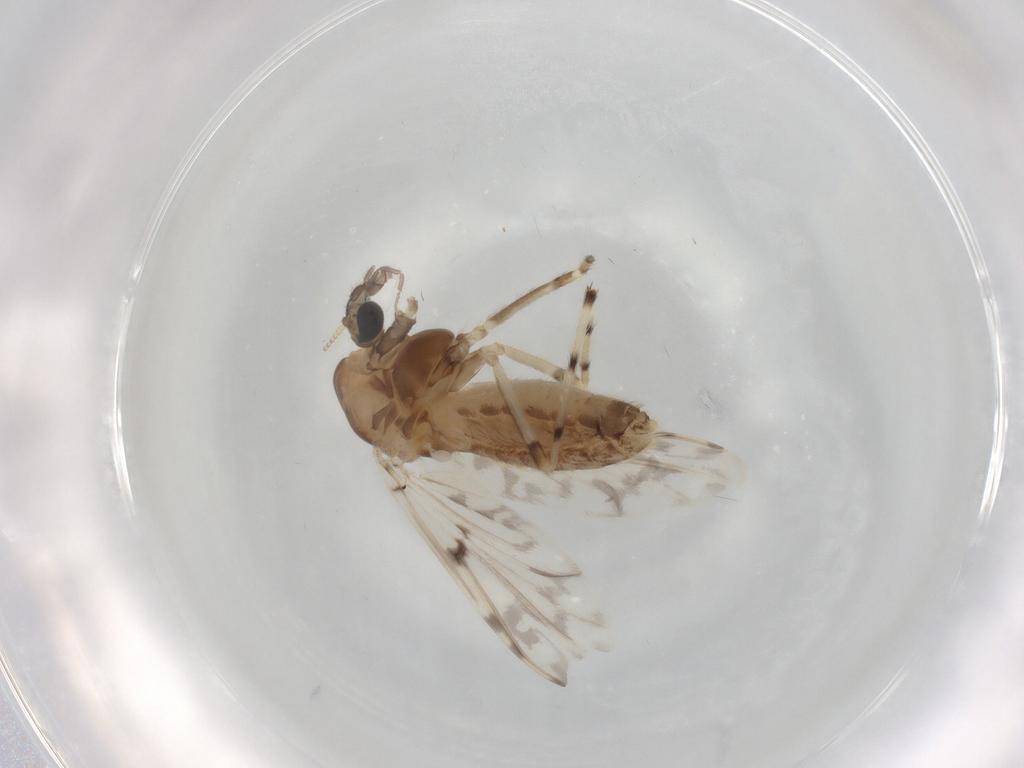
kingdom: Animalia
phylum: Arthropoda
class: Insecta
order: Diptera
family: Chironomidae
